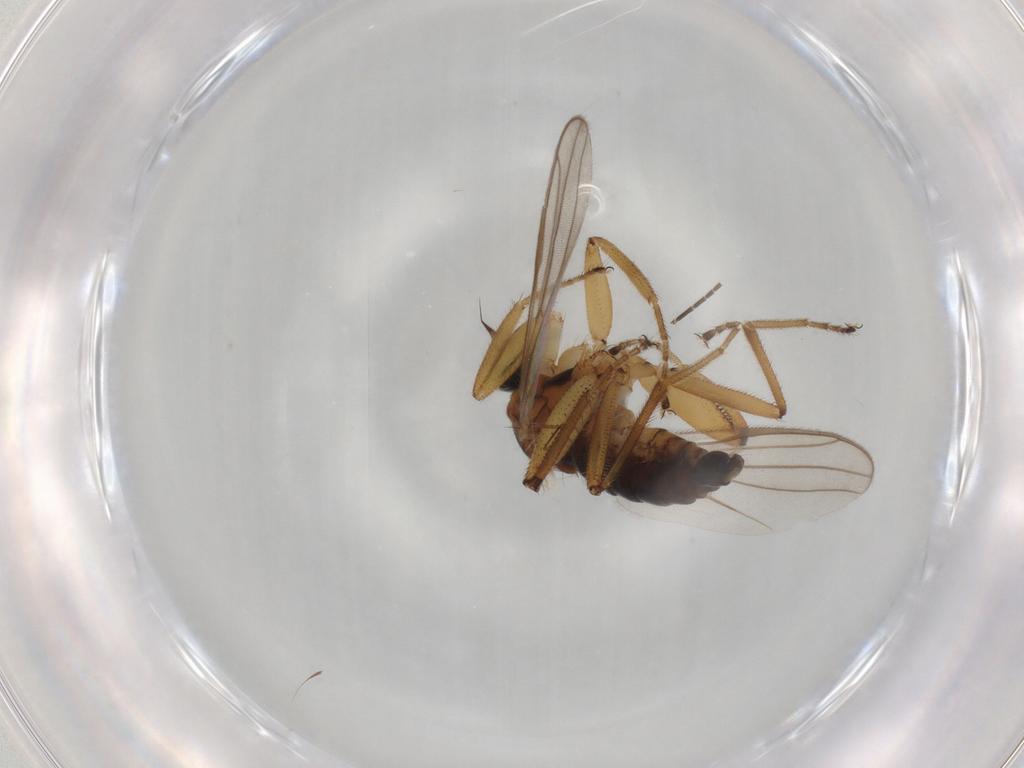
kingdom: Animalia
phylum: Arthropoda
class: Insecta
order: Diptera
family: Hybotidae
